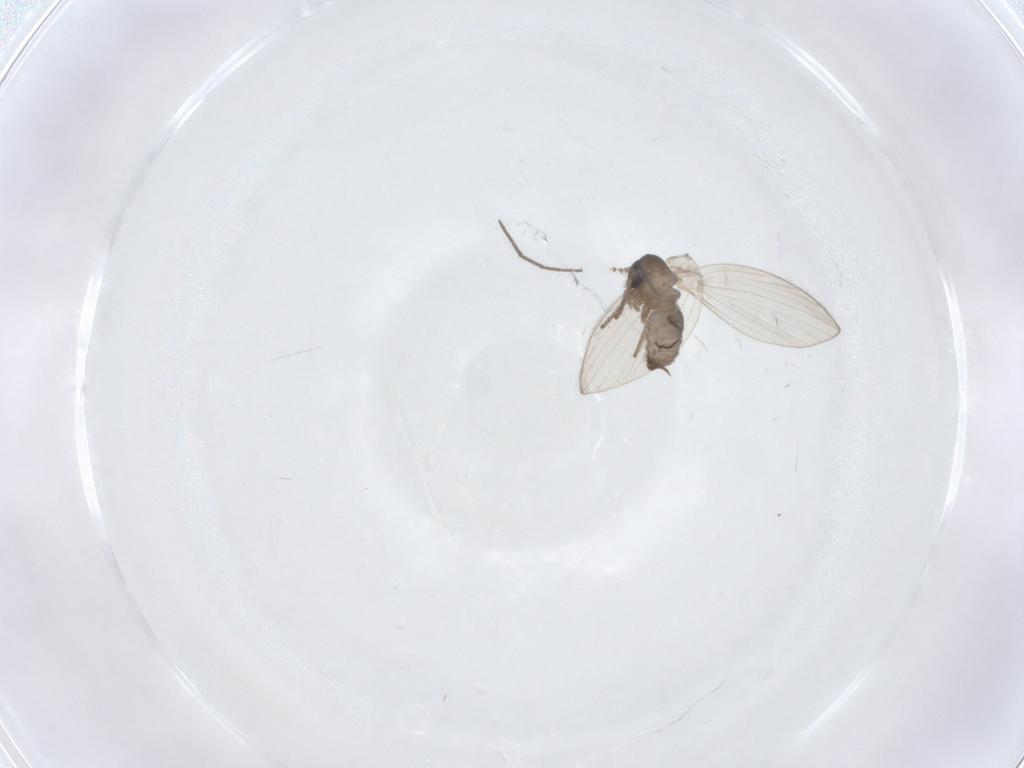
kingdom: Animalia
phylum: Arthropoda
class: Insecta
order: Diptera
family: Psychodidae
